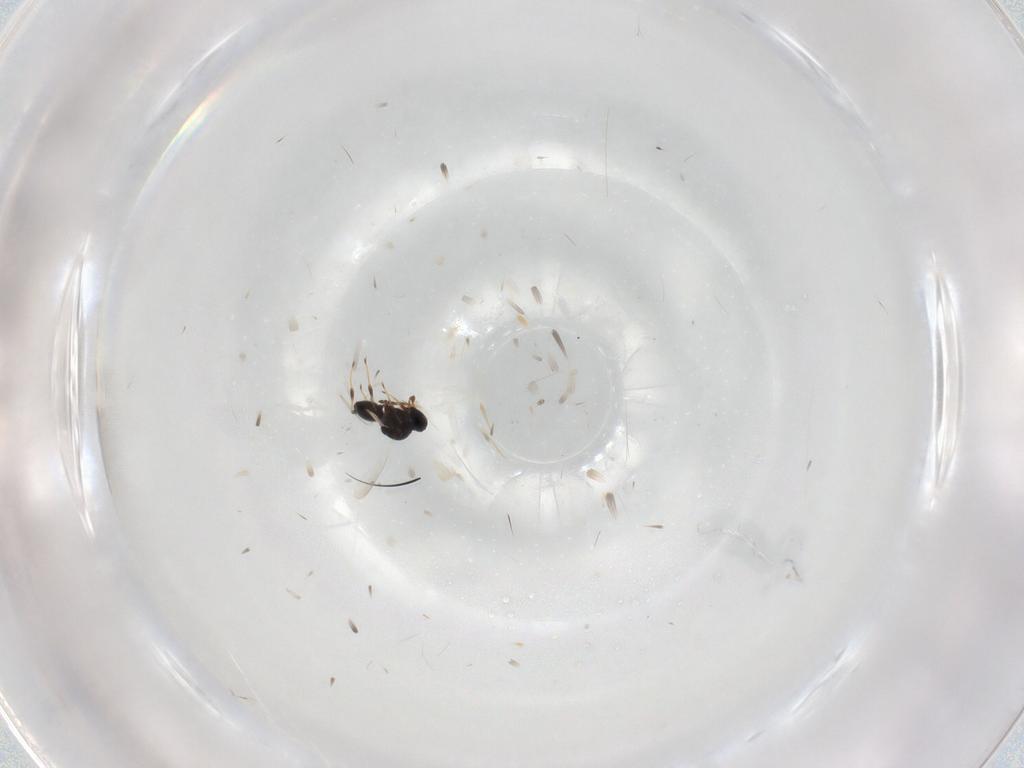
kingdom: Animalia
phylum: Arthropoda
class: Insecta
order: Hymenoptera
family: Platygastridae
